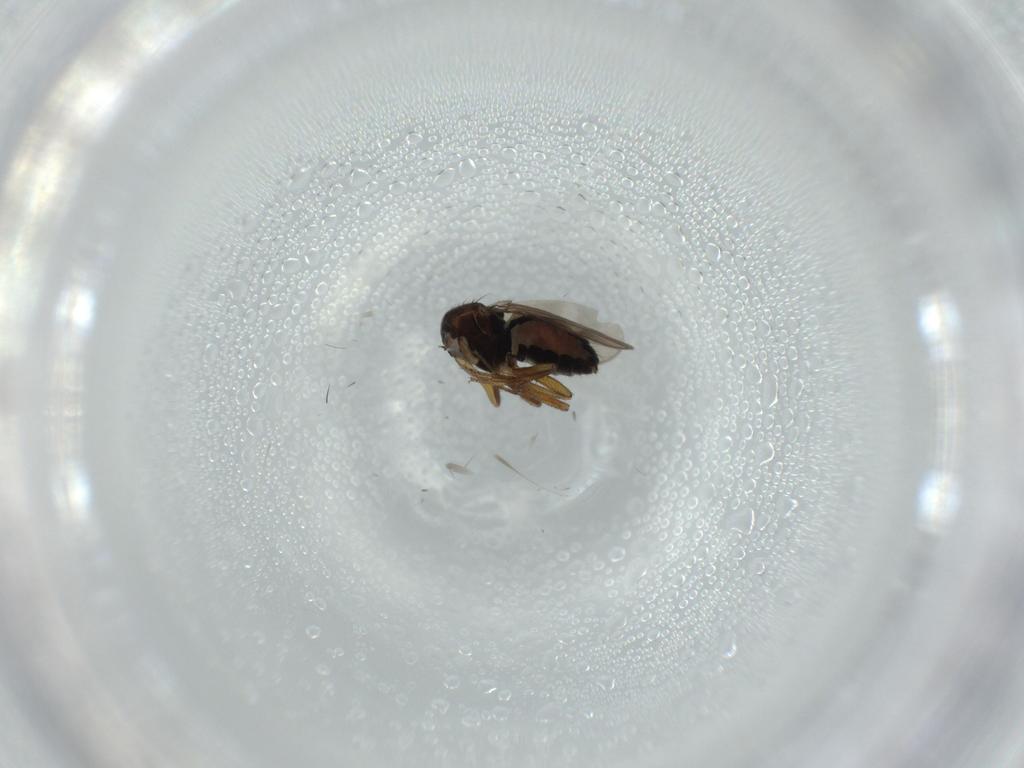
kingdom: Animalia
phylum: Arthropoda
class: Insecta
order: Diptera
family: Sphaeroceridae
